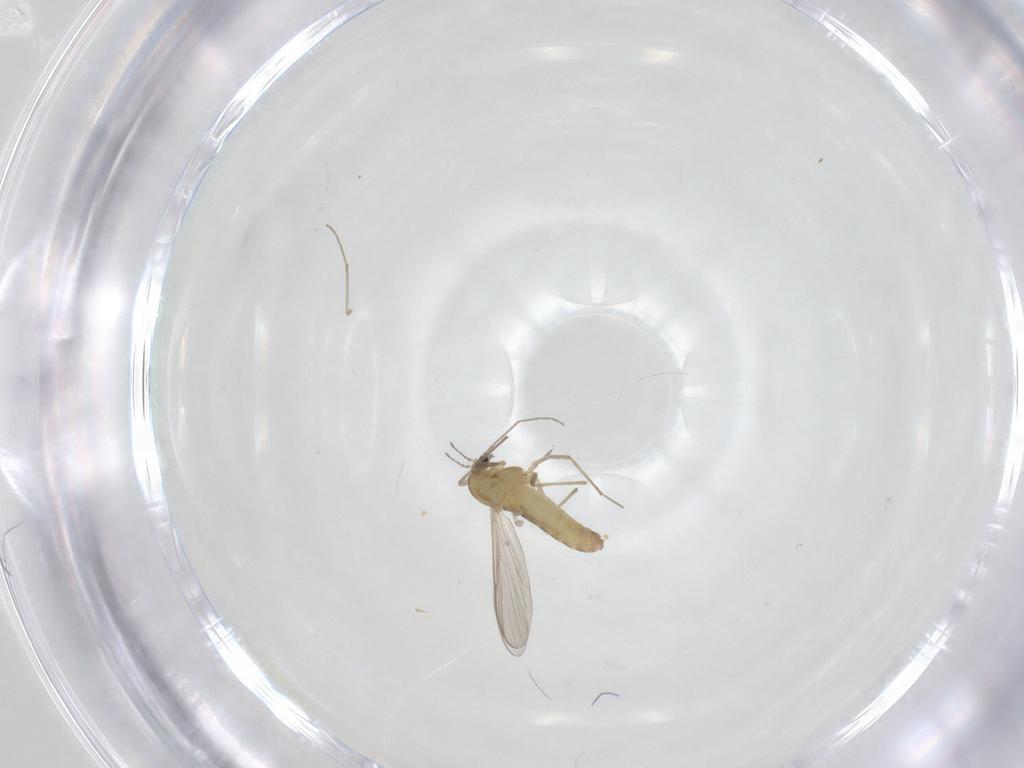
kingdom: Animalia
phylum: Arthropoda
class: Insecta
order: Diptera
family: Chironomidae
